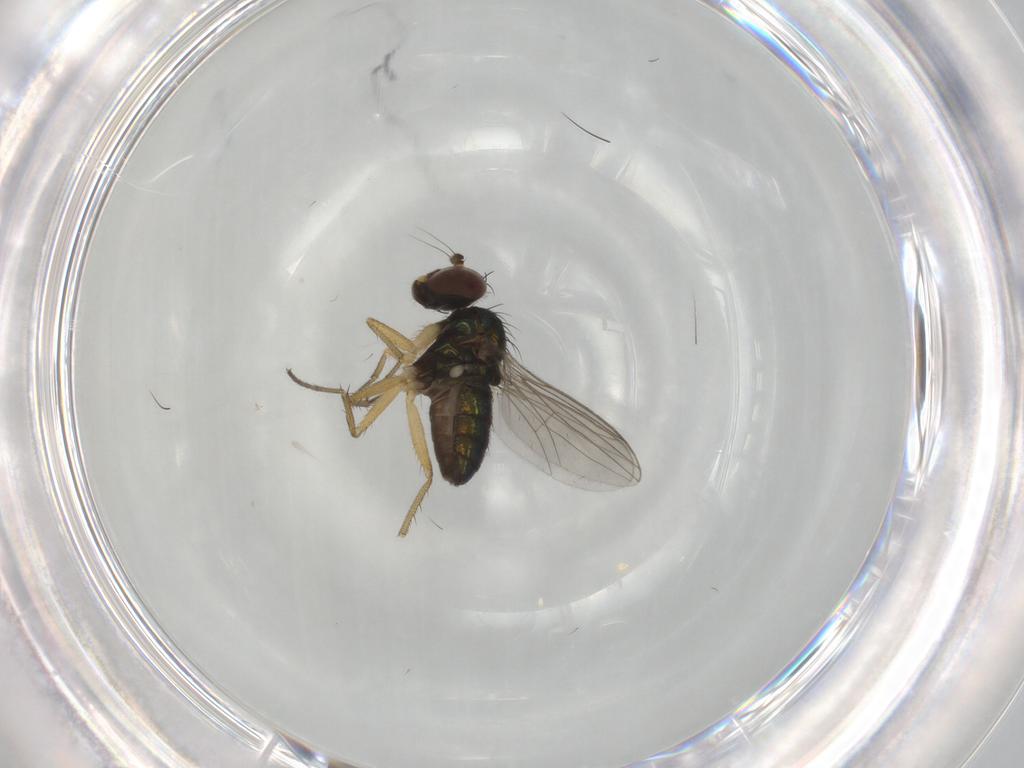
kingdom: Animalia
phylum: Arthropoda
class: Insecta
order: Diptera
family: Dolichopodidae
